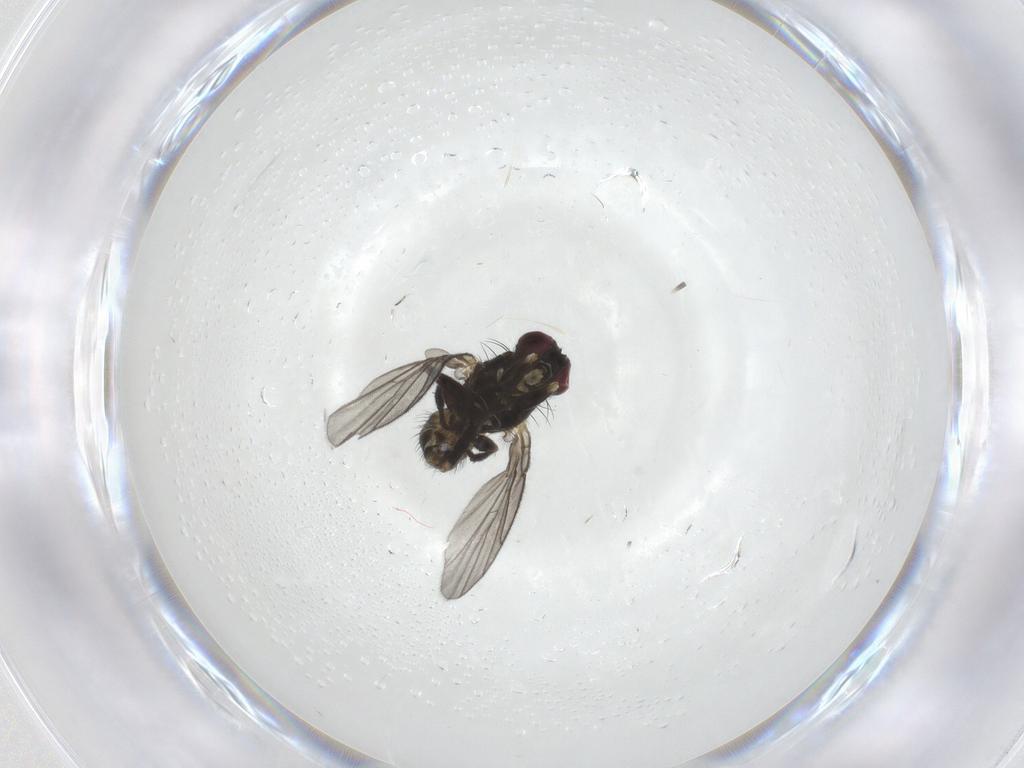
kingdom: Animalia
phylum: Arthropoda
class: Insecta
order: Diptera
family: Agromyzidae
